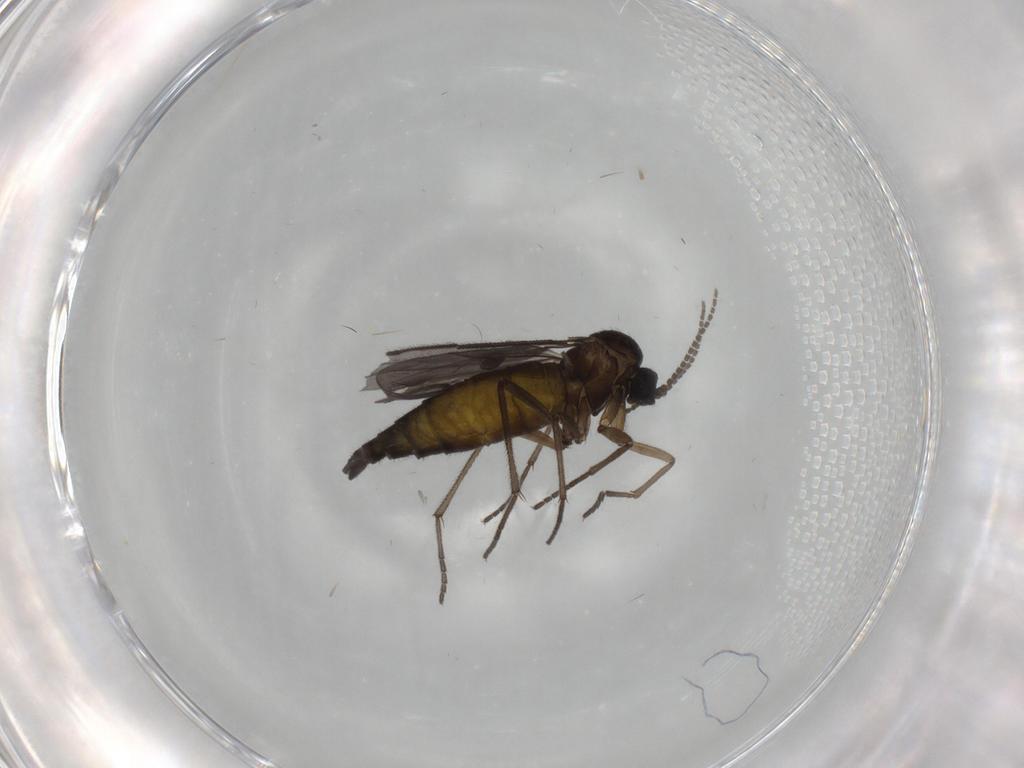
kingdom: Animalia
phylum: Arthropoda
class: Insecta
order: Diptera
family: Sciaridae
